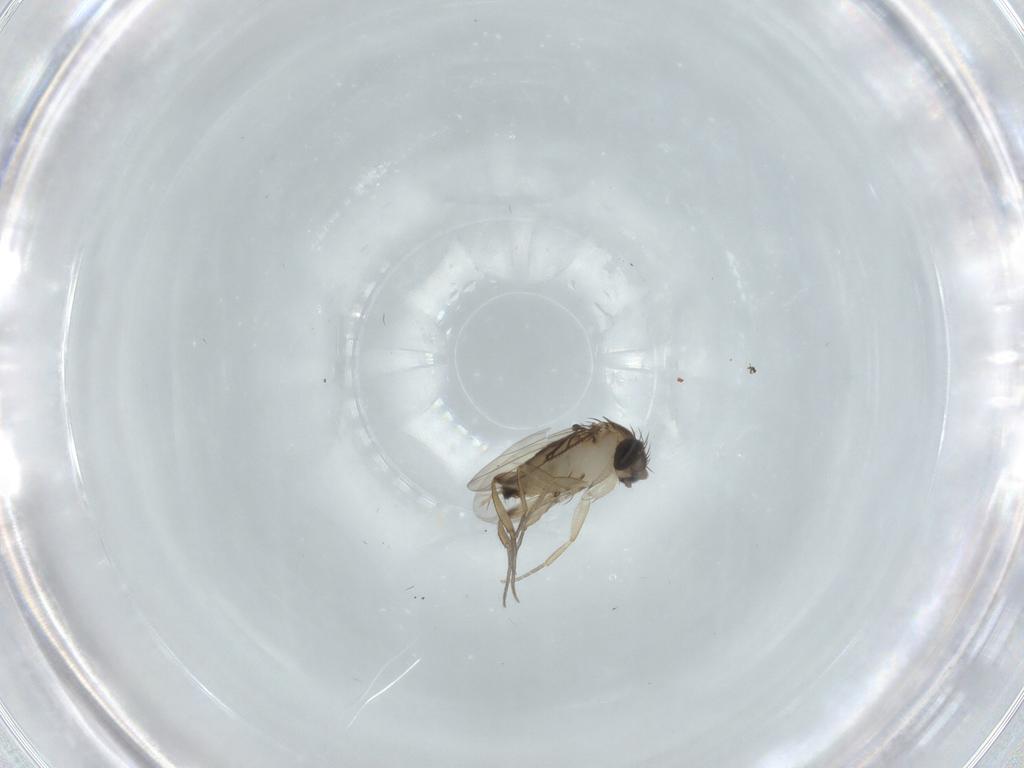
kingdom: Animalia
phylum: Arthropoda
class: Insecta
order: Diptera
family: Phoridae
